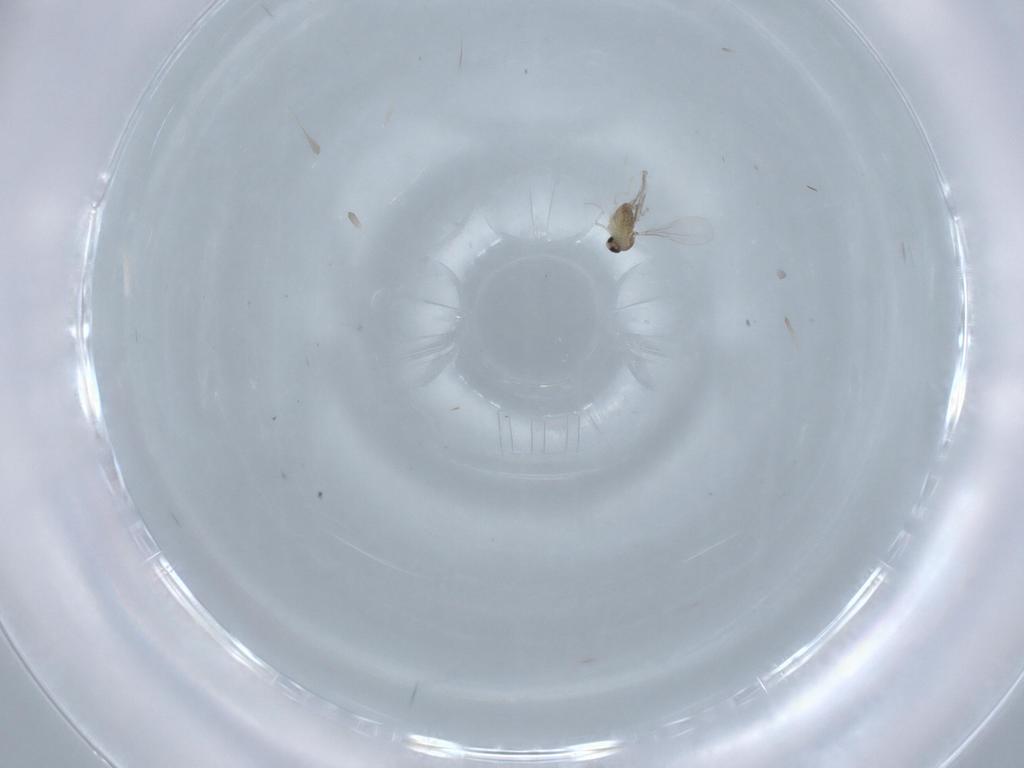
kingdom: Animalia
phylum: Arthropoda
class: Insecta
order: Diptera
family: Cecidomyiidae
